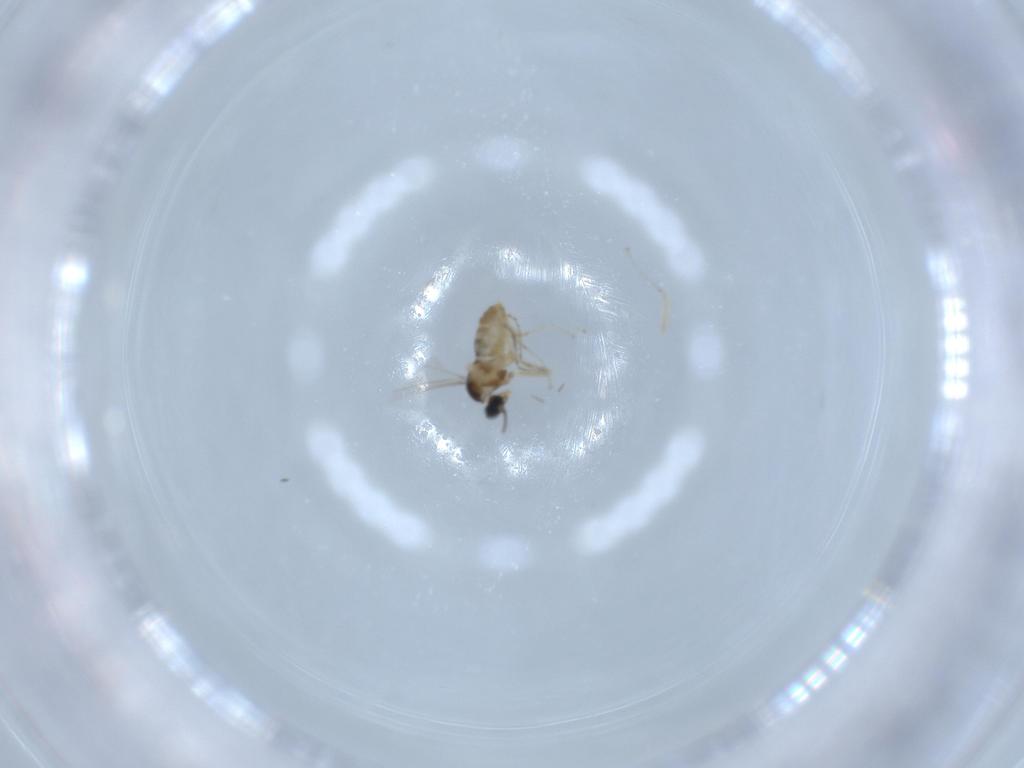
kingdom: Animalia
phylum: Arthropoda
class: Insecta
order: Diptera
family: Cecidomyiidae
